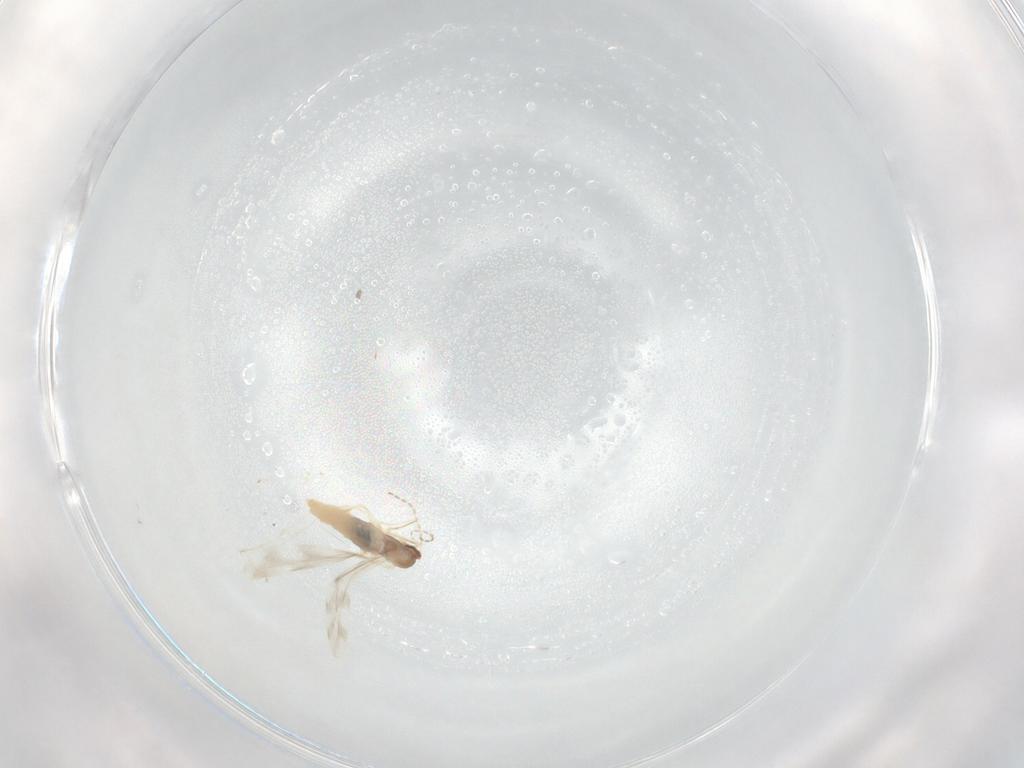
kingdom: Animalia
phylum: Arthropoda
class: Insecta
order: Diptera
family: Cecidomyiidae
